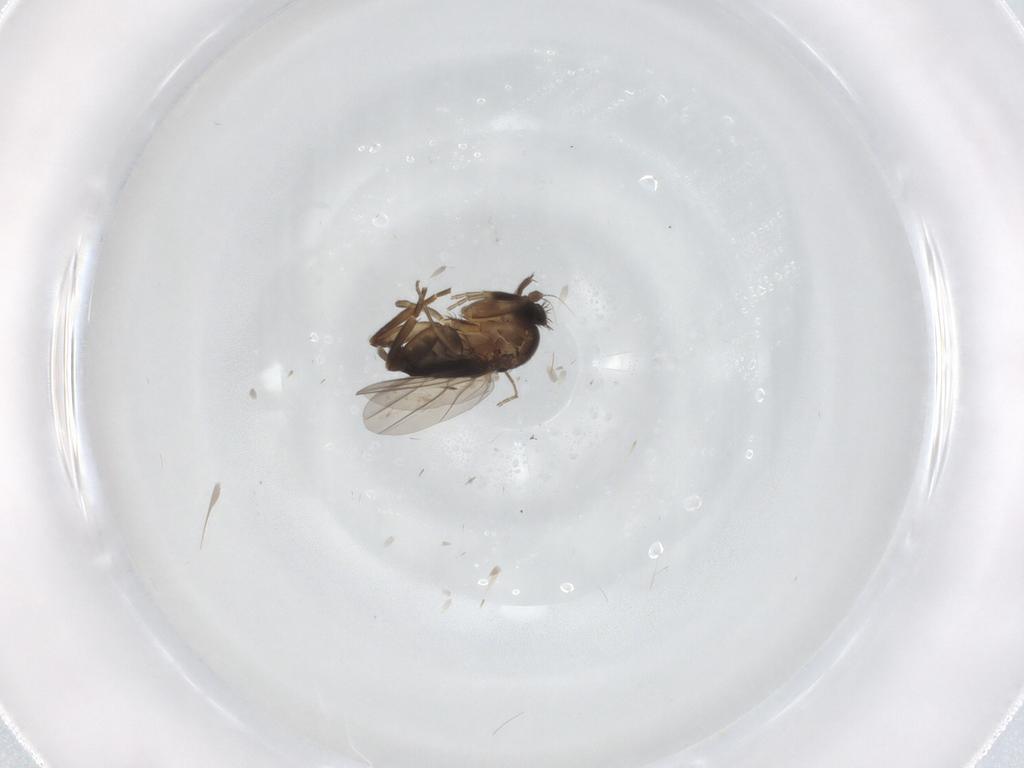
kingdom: Animalia
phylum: Arthropoda
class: Insecta
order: Diptera
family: Phoridae
